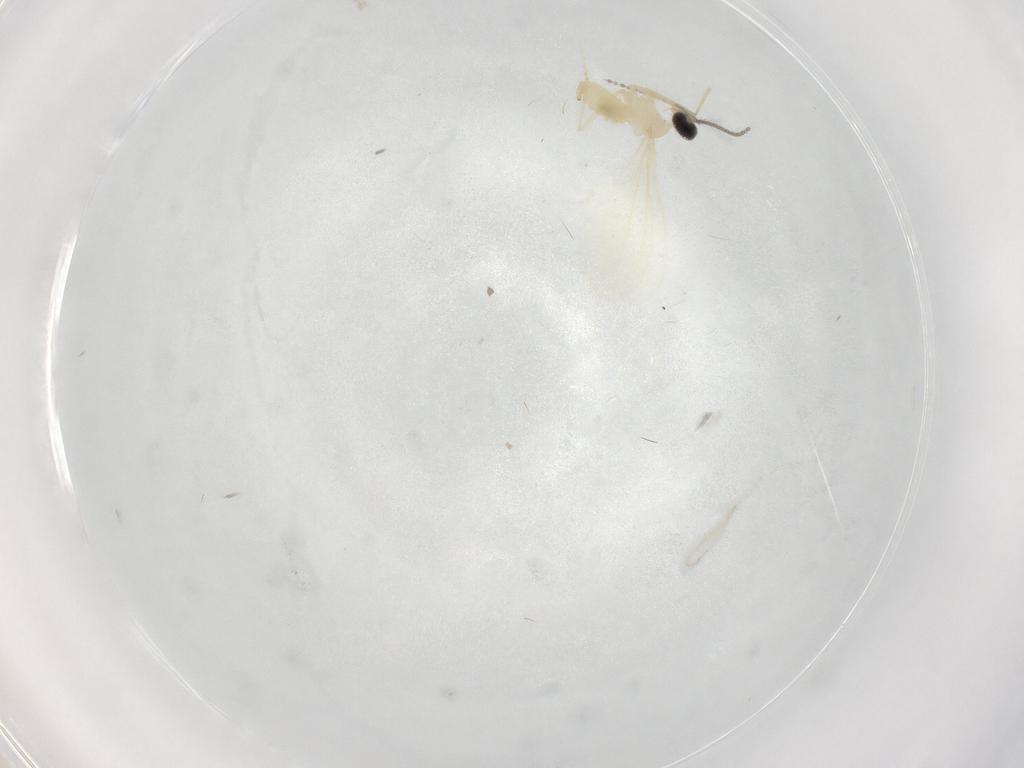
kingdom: Animalia
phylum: Arthropoda
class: Insecta
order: Diptera
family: Cecidomyiidae
